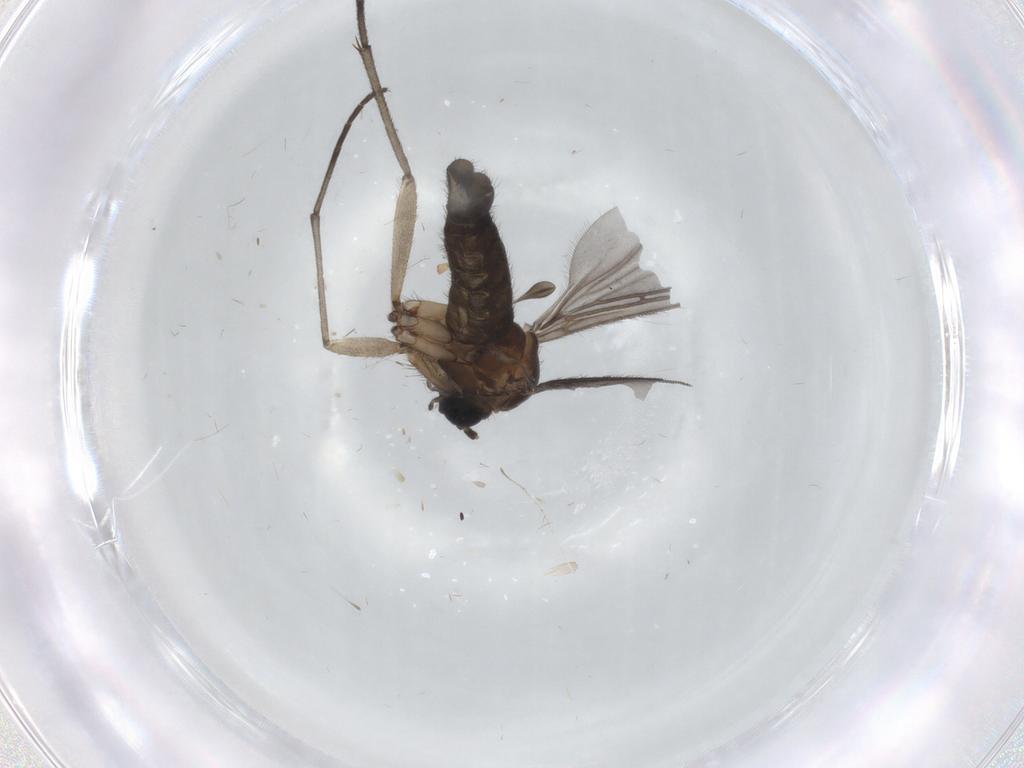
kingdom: Animalia
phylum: Arthropoda
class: Insecta
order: Diptera
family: Sciaridae
